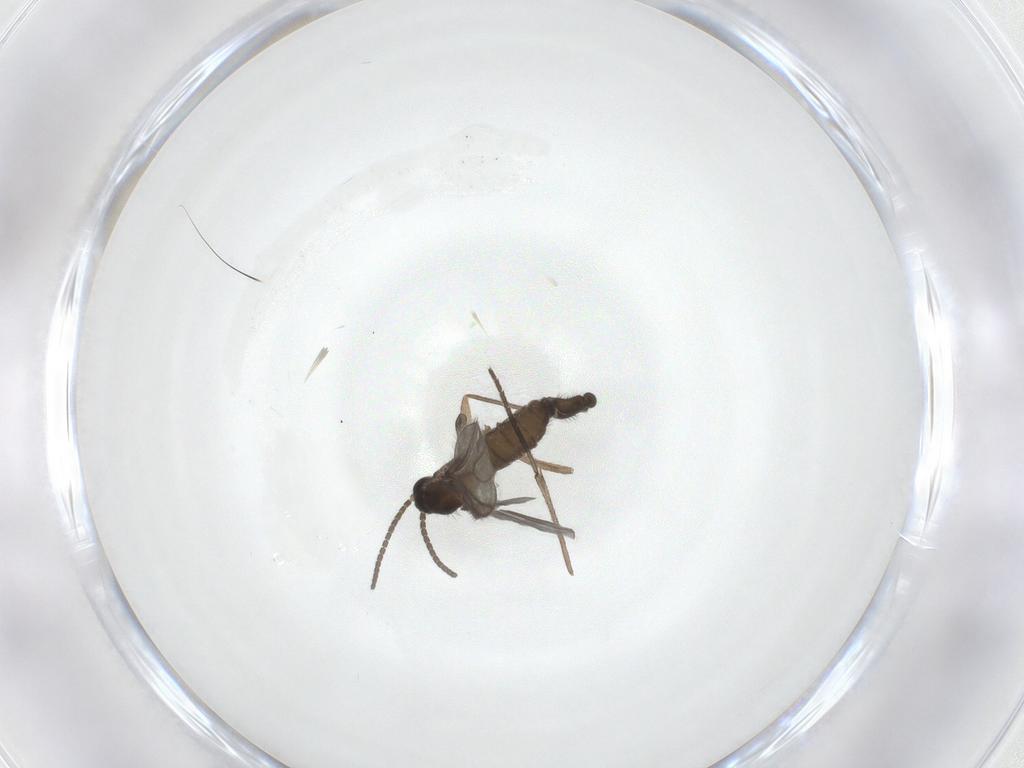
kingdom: Animalia
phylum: Arthropoda
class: Insecta
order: Diptera
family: Sciaridae
